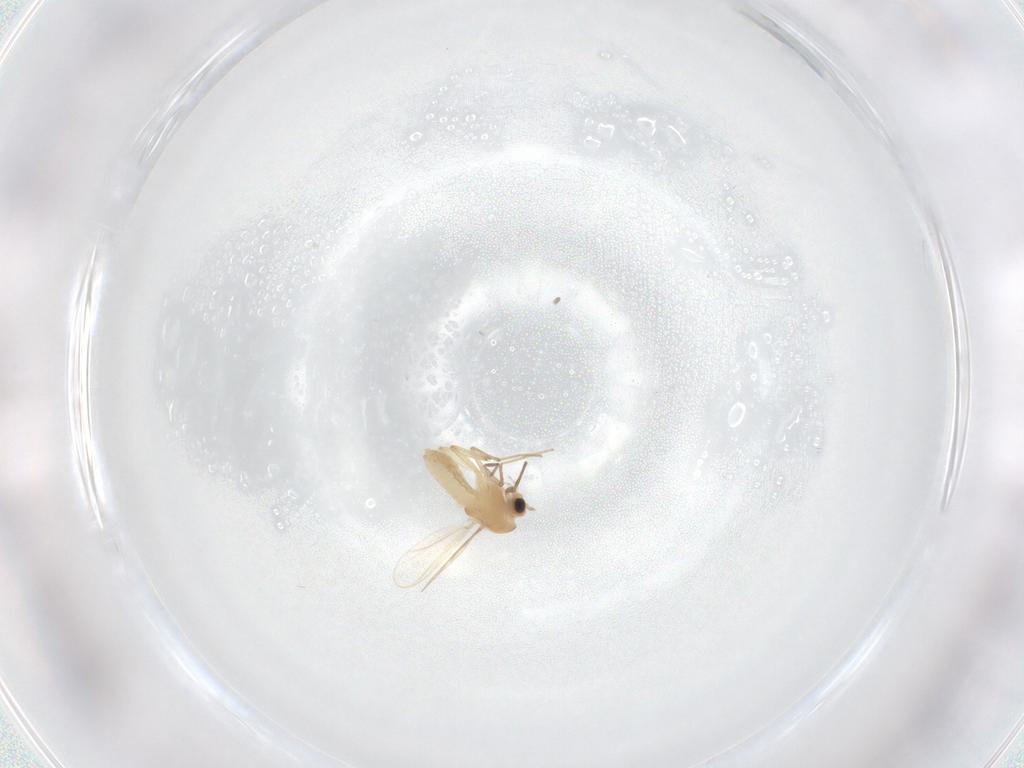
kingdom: Animalia
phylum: Arthropoda
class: Insecta
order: Diptera
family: Chironomidae
